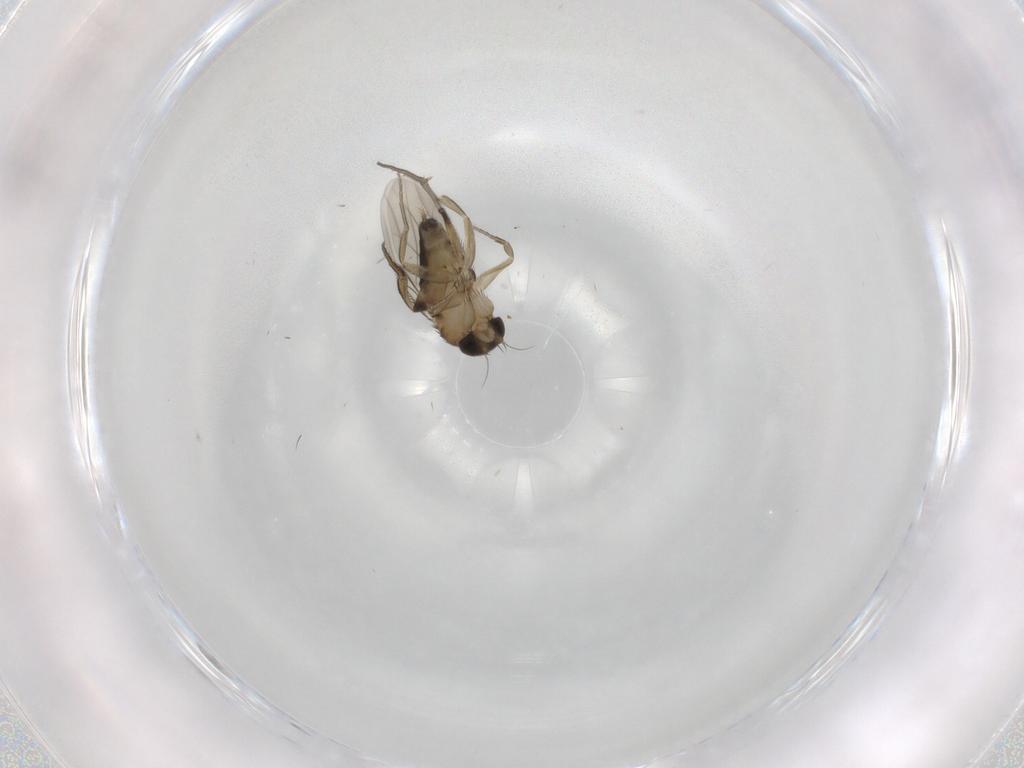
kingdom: Animalia
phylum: Arthropoda
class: Insecta
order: Diptera
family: Phoridae
